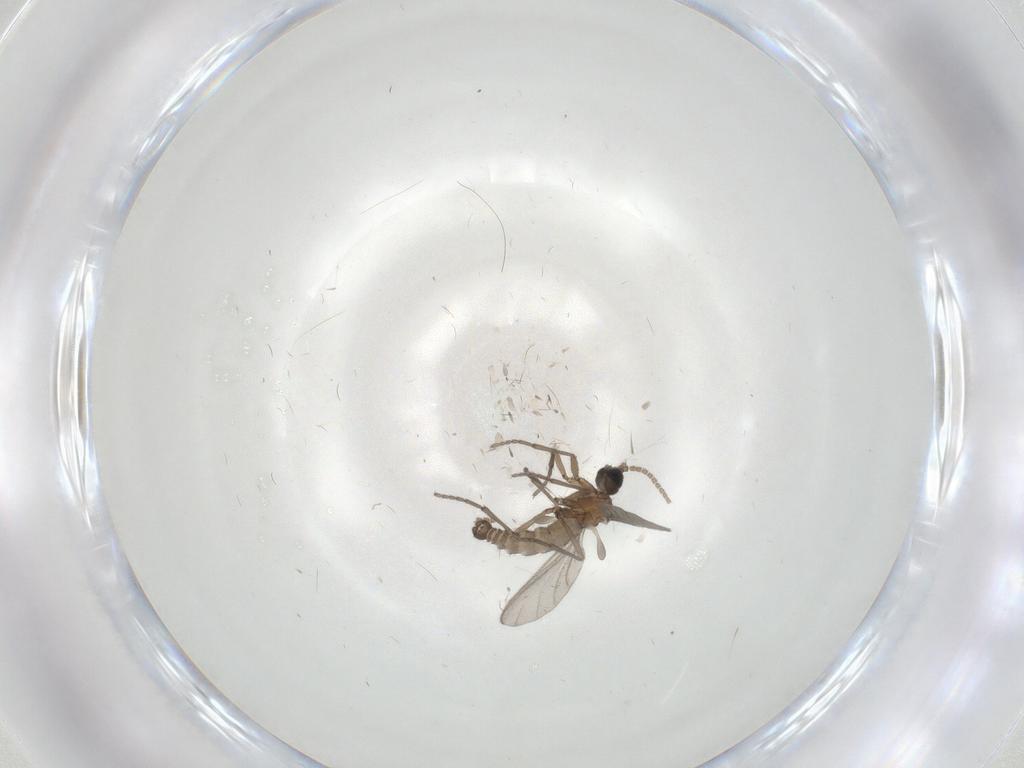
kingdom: Animalia
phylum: Arthropoda
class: Insecta
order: Diptera
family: Sciaridae
